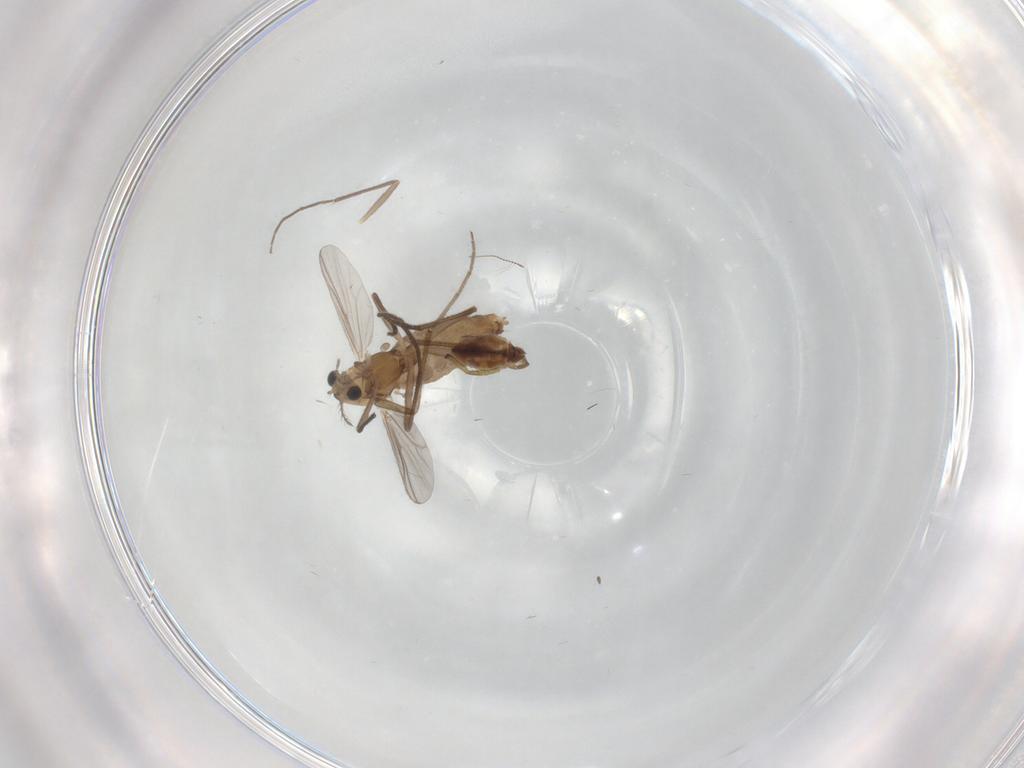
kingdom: Animalia
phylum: Arthropoda
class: Insecta
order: Diptera
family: Chironomidae
